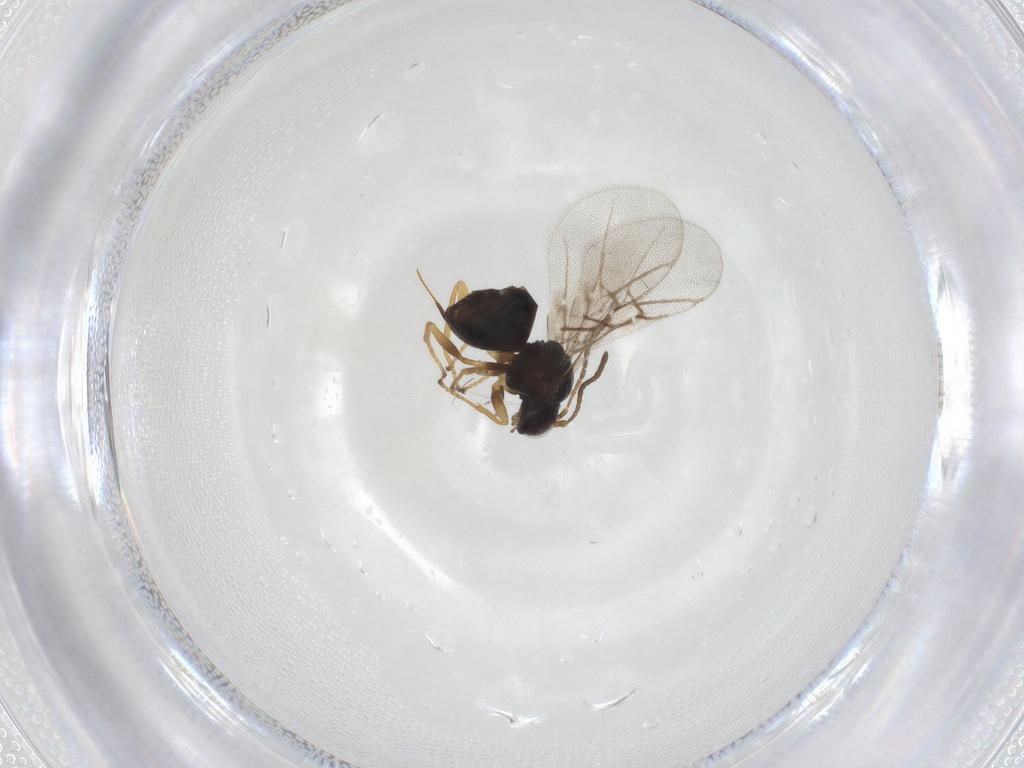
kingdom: Animalia
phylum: Arthropoda
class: Insecta
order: Hymenoptera
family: Cynipidae
